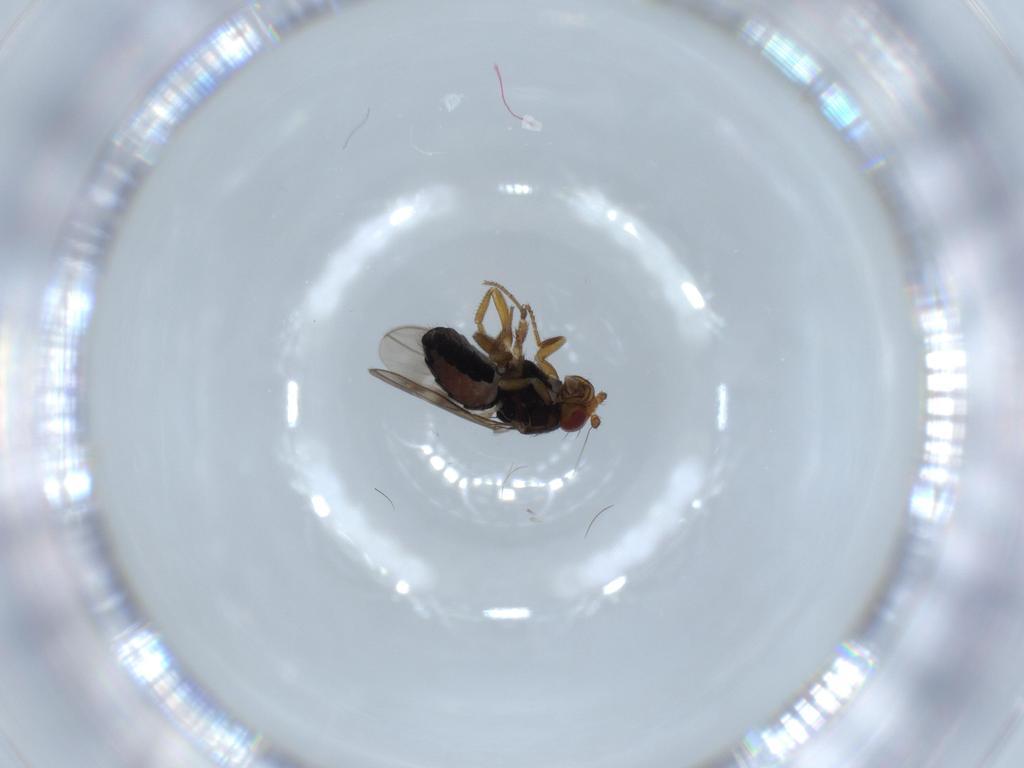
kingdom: Animalia
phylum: Arthropoda
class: Insecta
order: Diptera
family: Sphaeroceridae
